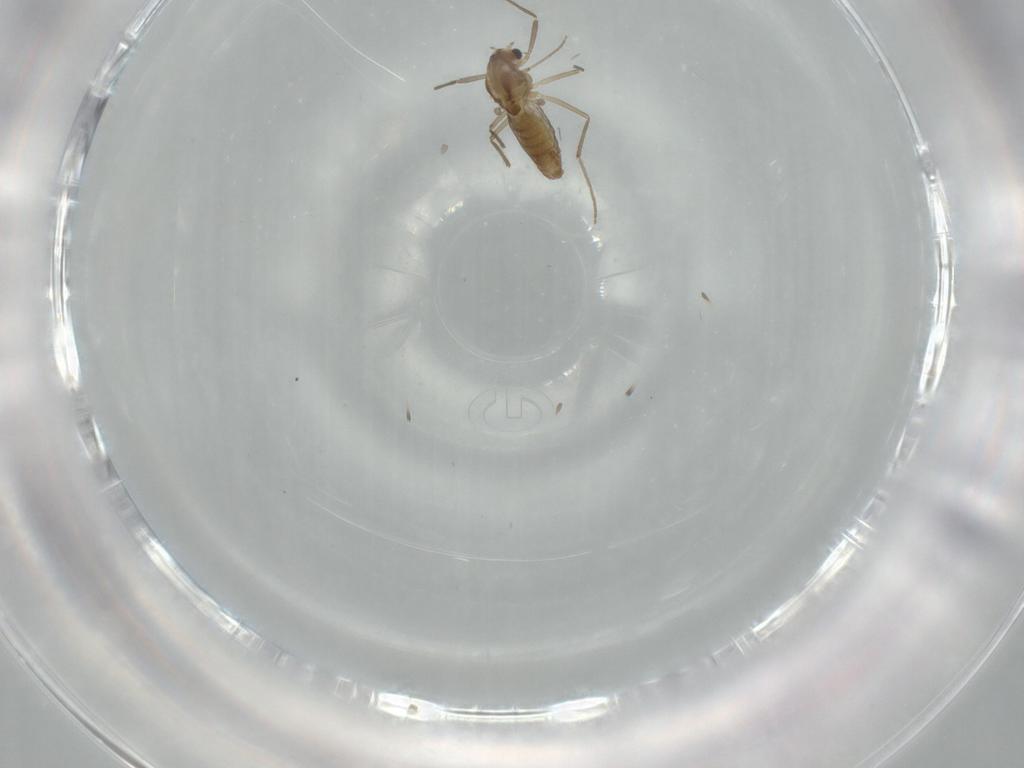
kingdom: Animalia
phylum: Arthropoda
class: Insecta
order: Diptera
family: Chironomidae
